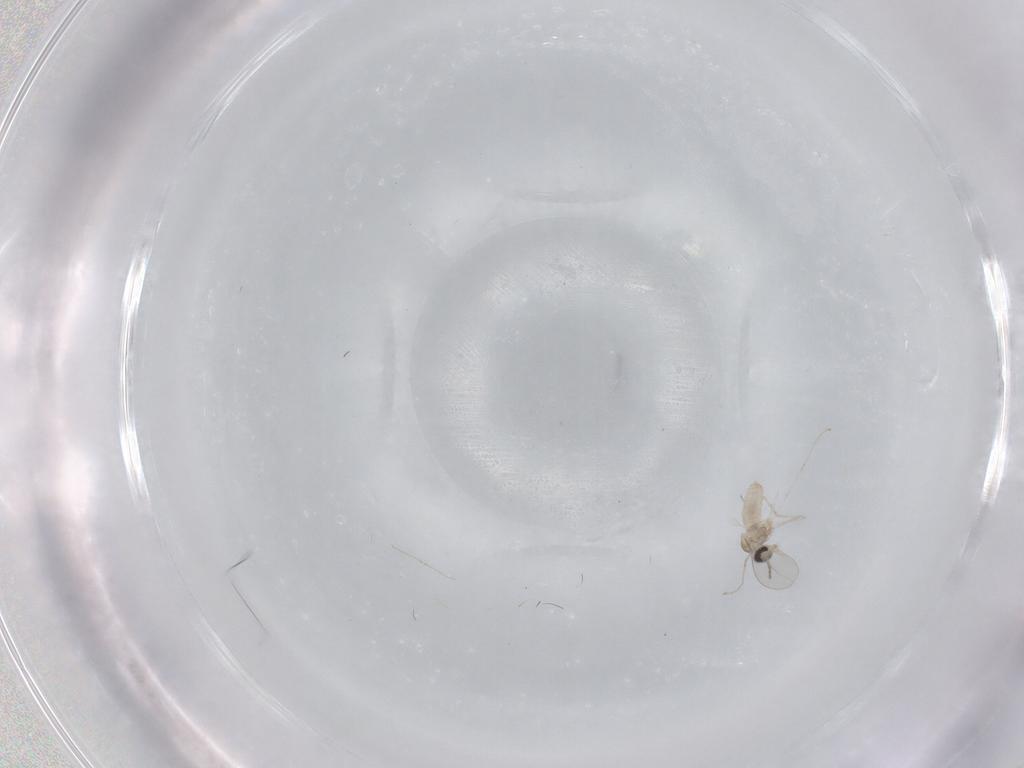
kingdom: Animalia
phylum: Arthropoda
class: Insecta
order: Diptera
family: Cecidomyiidae
